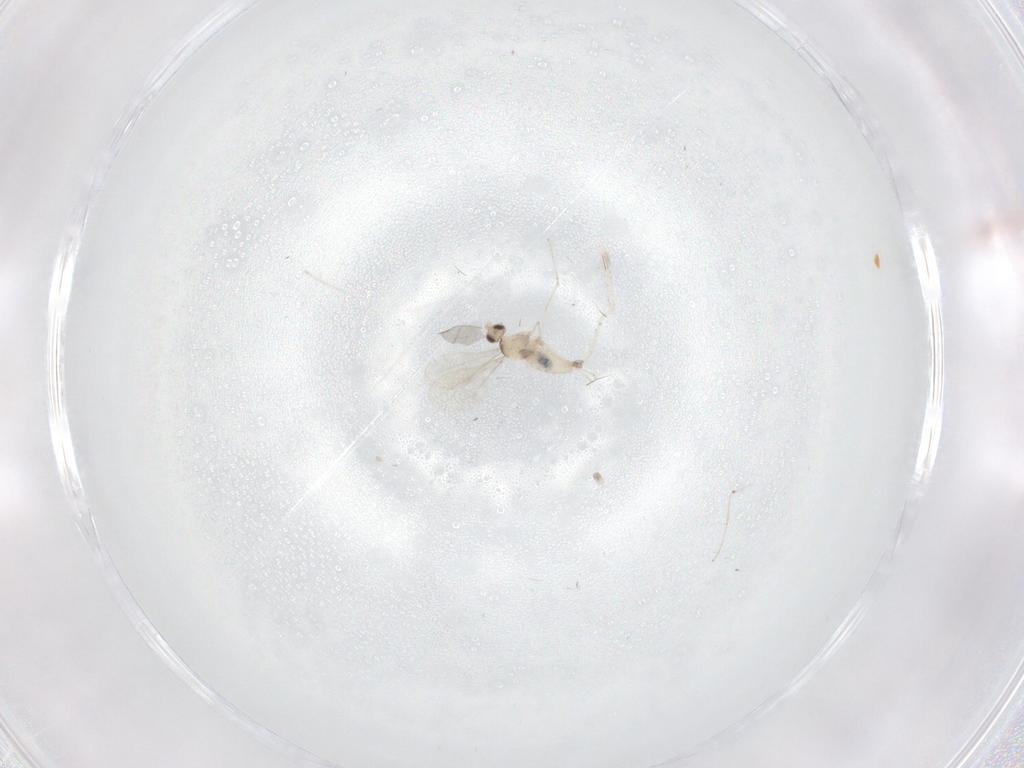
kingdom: Animalia
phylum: Arthropoda
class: Insecta
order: Diptera
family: Cecidomyiidae
